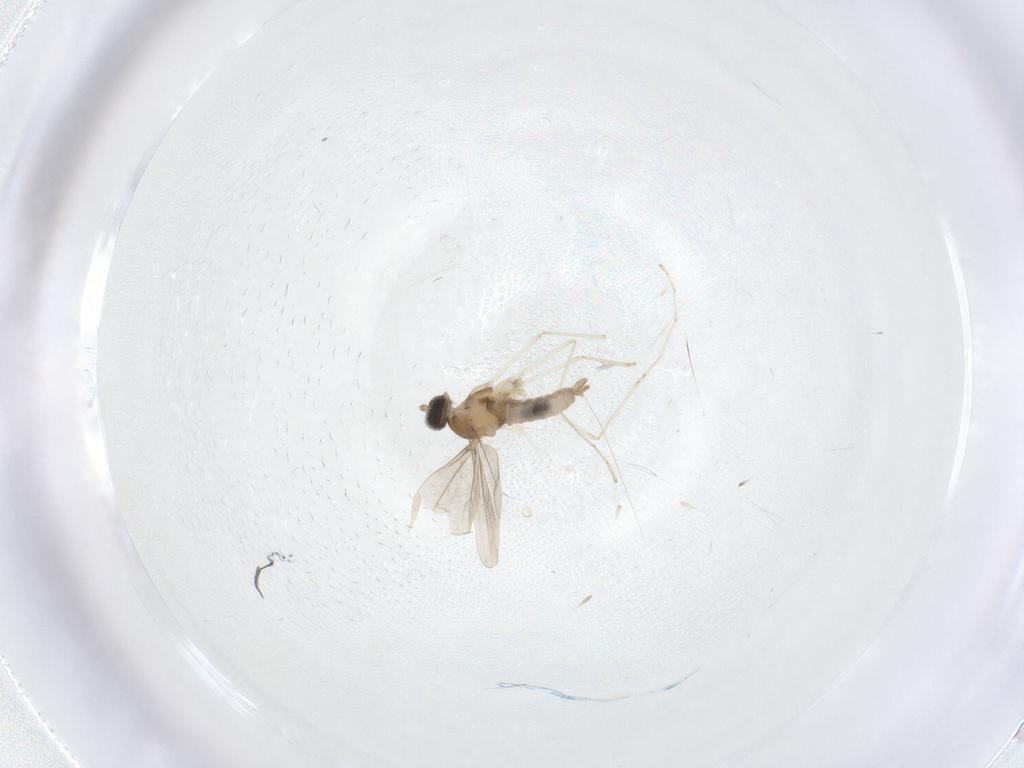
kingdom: Animalia
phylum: Arthropoda
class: Insecta
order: Diptera
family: Cecidomyiidae
